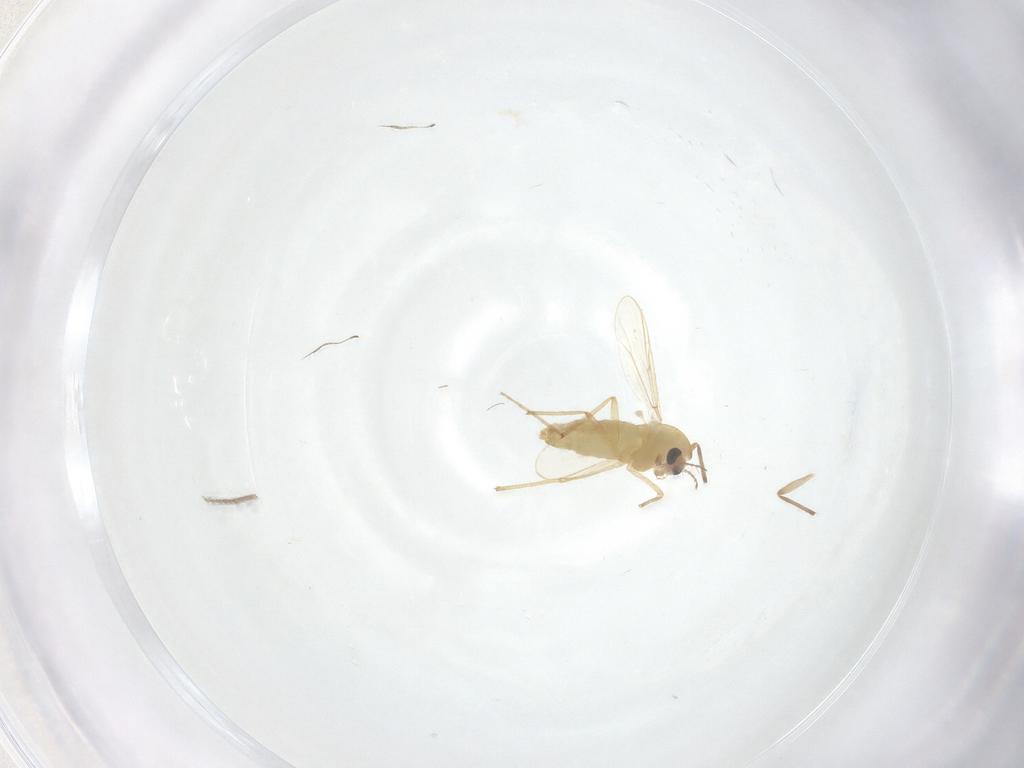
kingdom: Animalia
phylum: Arthropoda
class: Insecta
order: Diptera
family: Chironomidae
